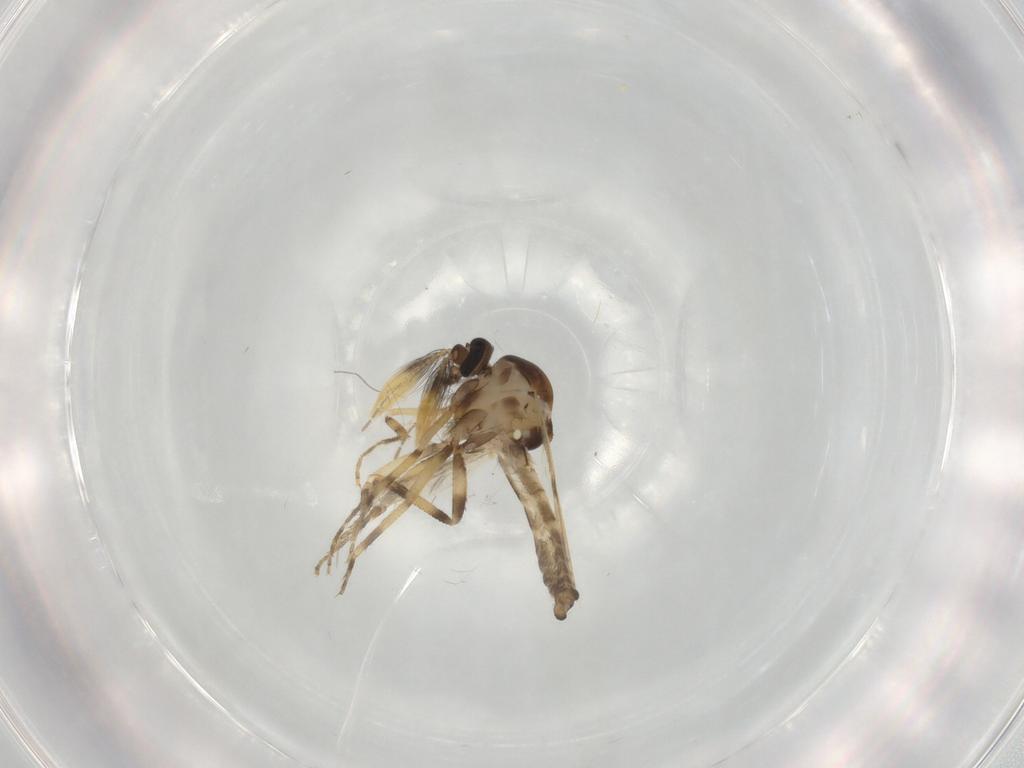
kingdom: Animalia
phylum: Arthropoda
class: Insecta
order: Diptera
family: Ceratopogonidae
